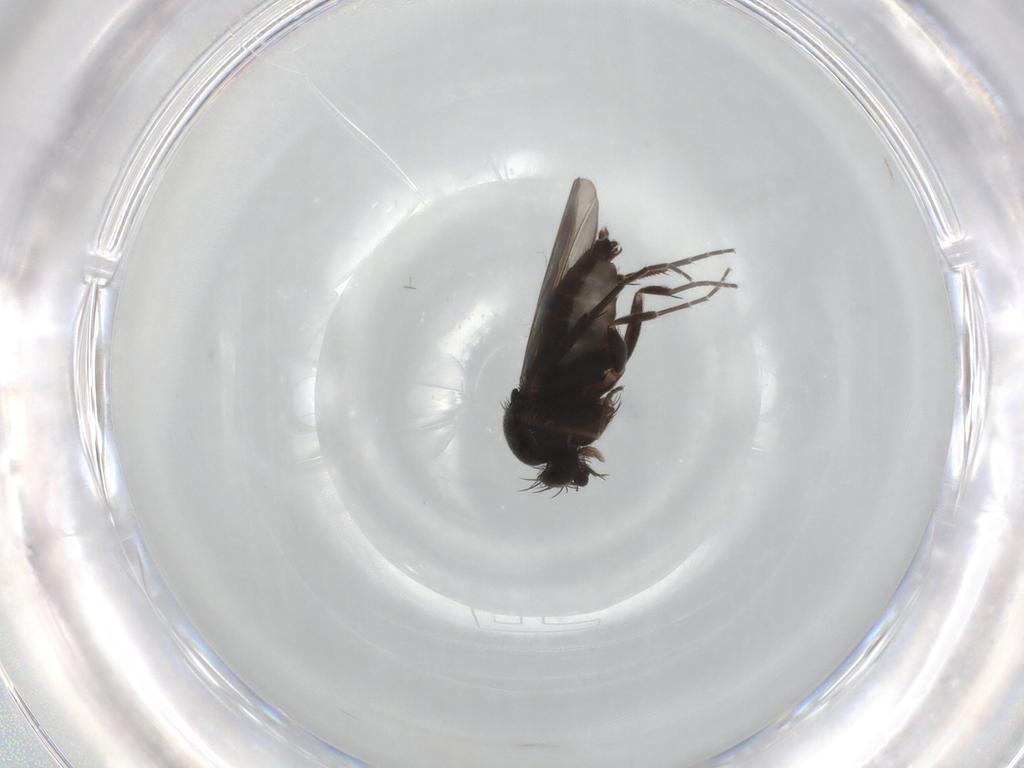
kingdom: Animalia
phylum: Arthropoda
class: Insecta
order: Diptera
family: Phoridae
